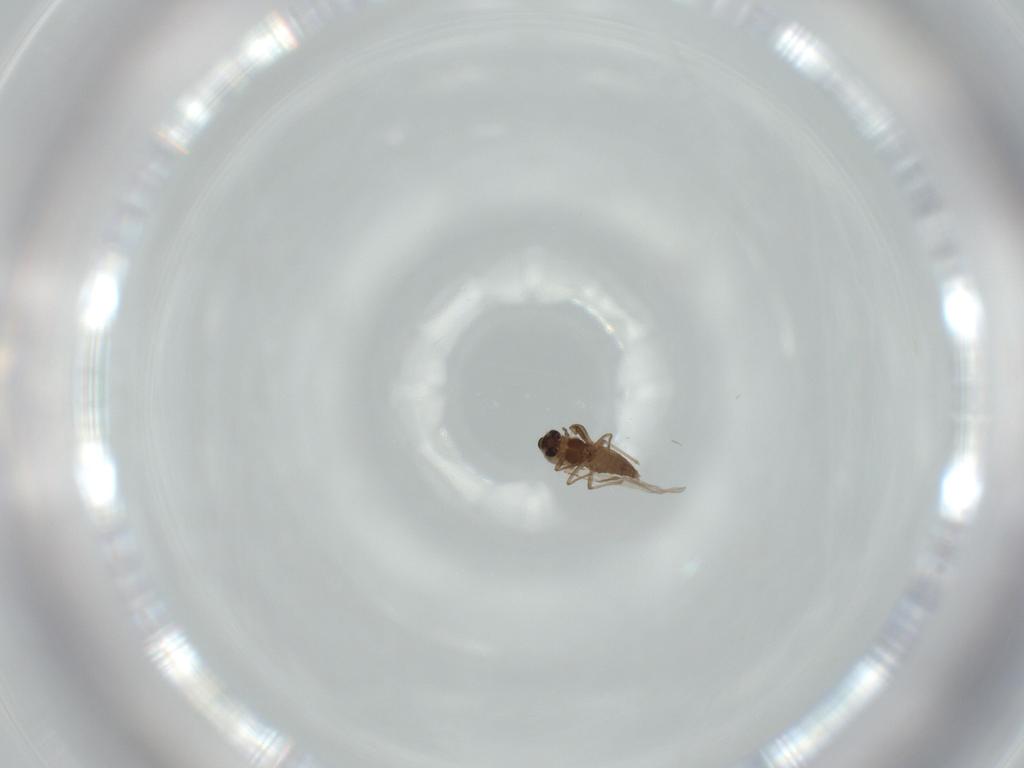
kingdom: Animalia
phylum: Arthropoda
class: Insecta
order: Diptera
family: Chironomidae
